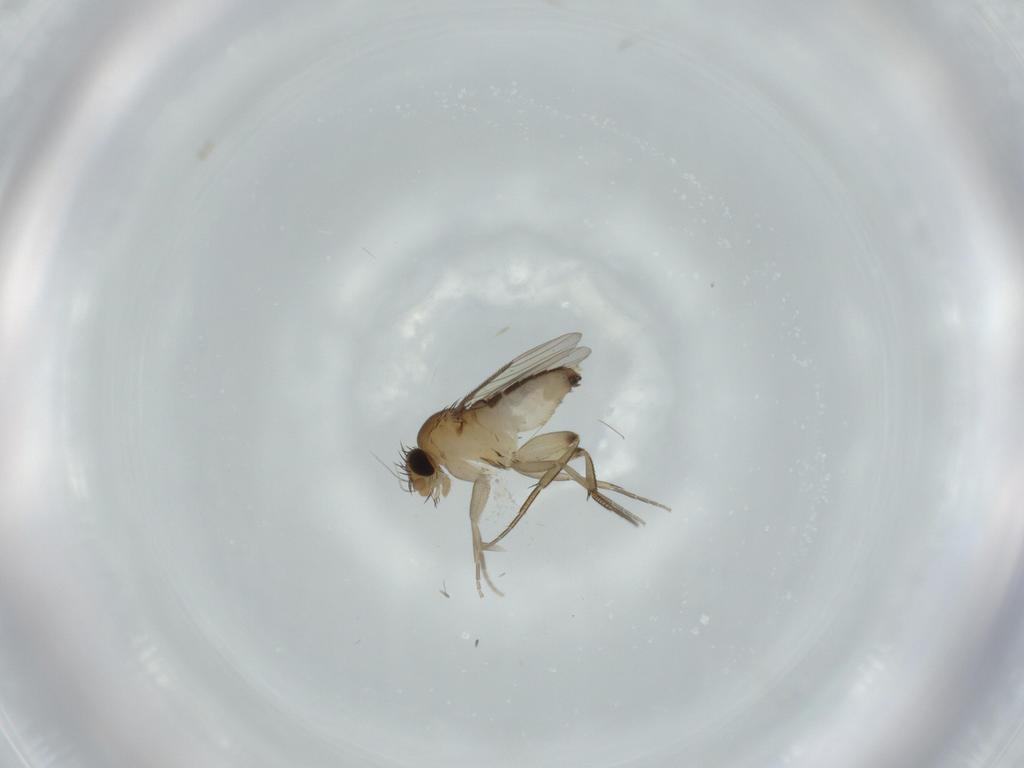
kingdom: Animalia
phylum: Arthropoda
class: Insecta
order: Diptera
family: Phoridae
